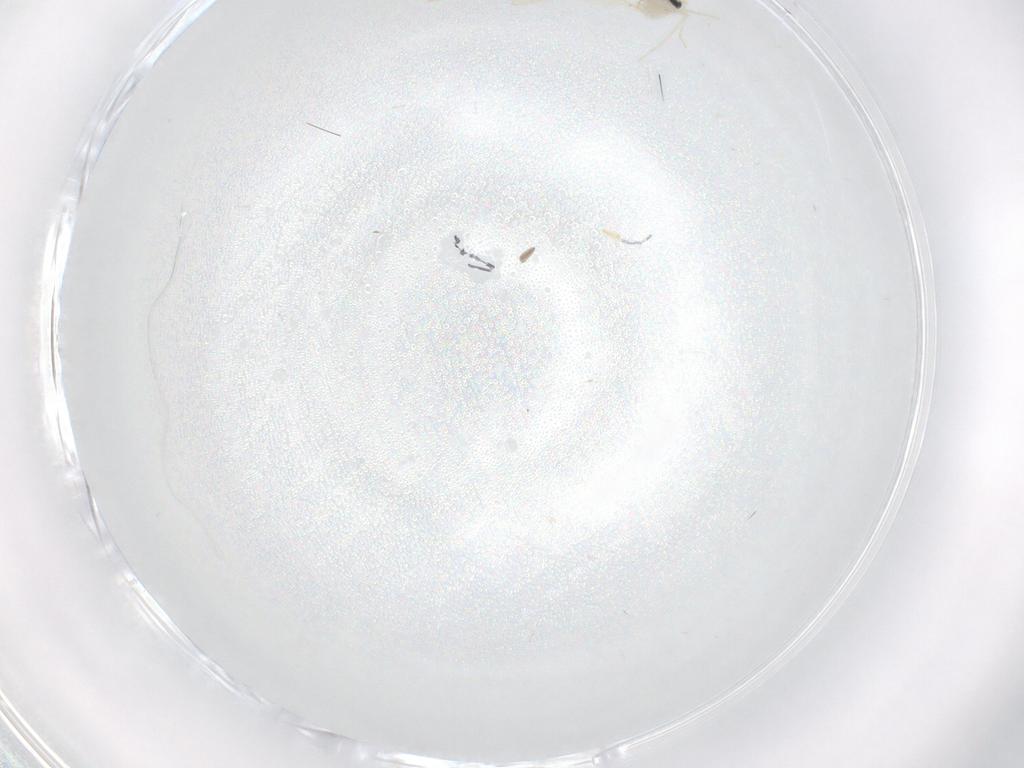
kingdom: Animalia
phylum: Arthropoda
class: Insecta
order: Diptera
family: Cecidomyiidae
